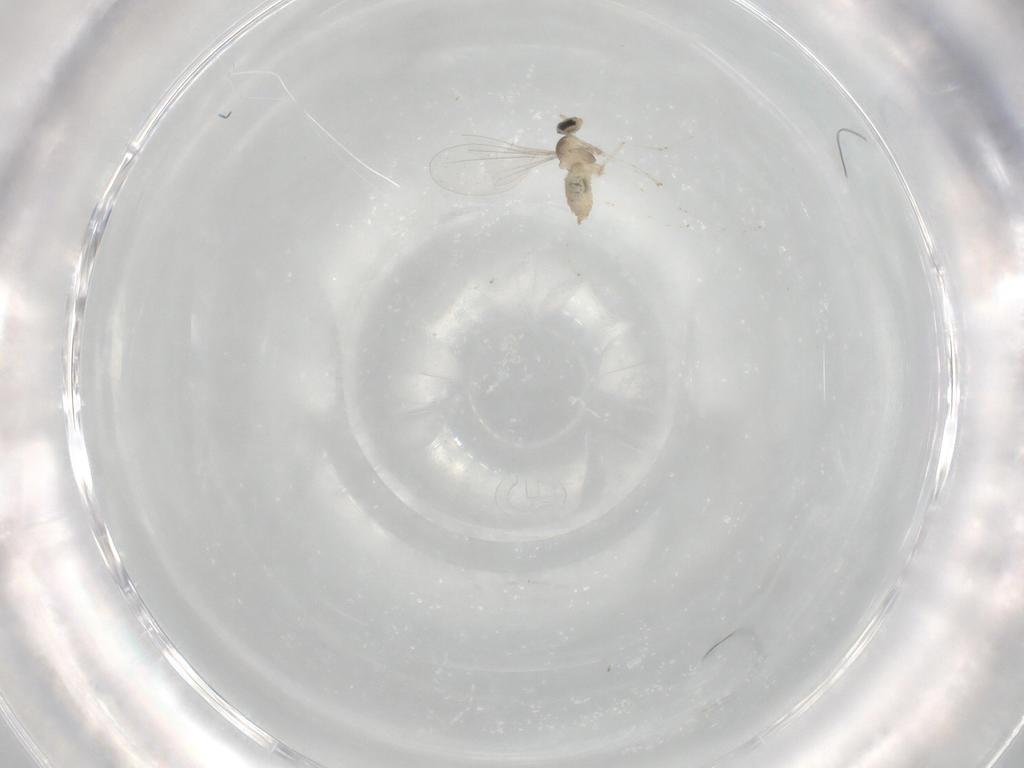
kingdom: Animalia
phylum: Arthropoda
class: Insecta
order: Diptera
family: Cecidomyiidae
